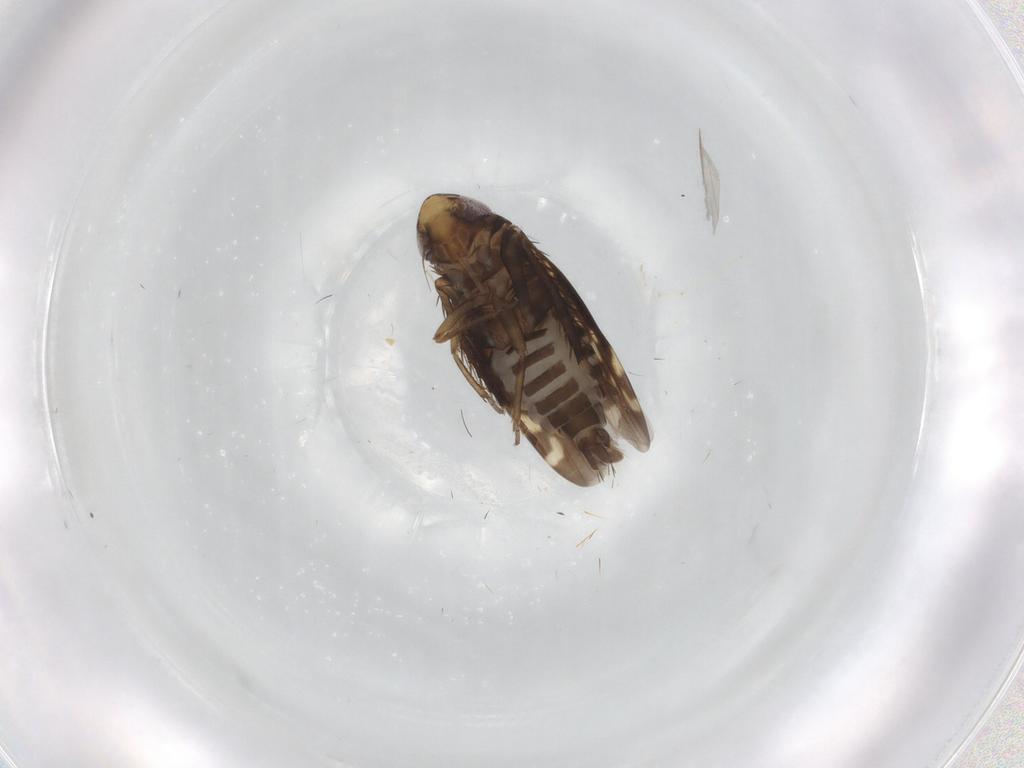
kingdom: Animalia
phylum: Arthropoda
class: Insecta
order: Hemiptera
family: Cicadellidae
